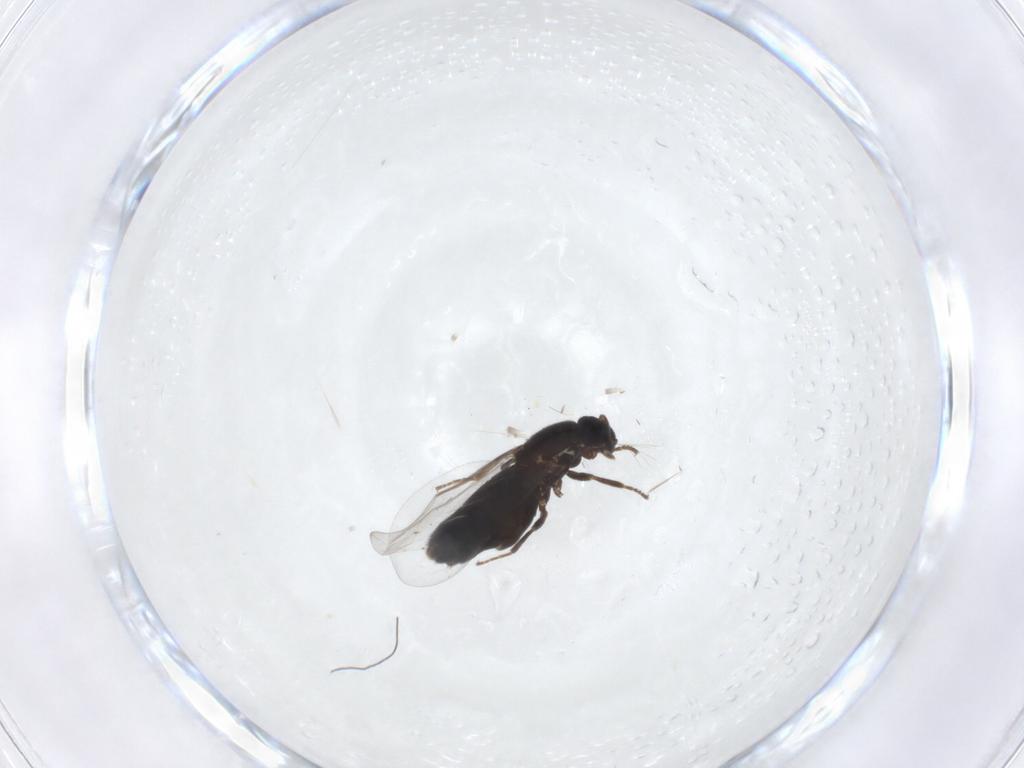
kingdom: Animalia
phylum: Arthropoda
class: Insecta
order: Diptera
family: Scatopsidae
